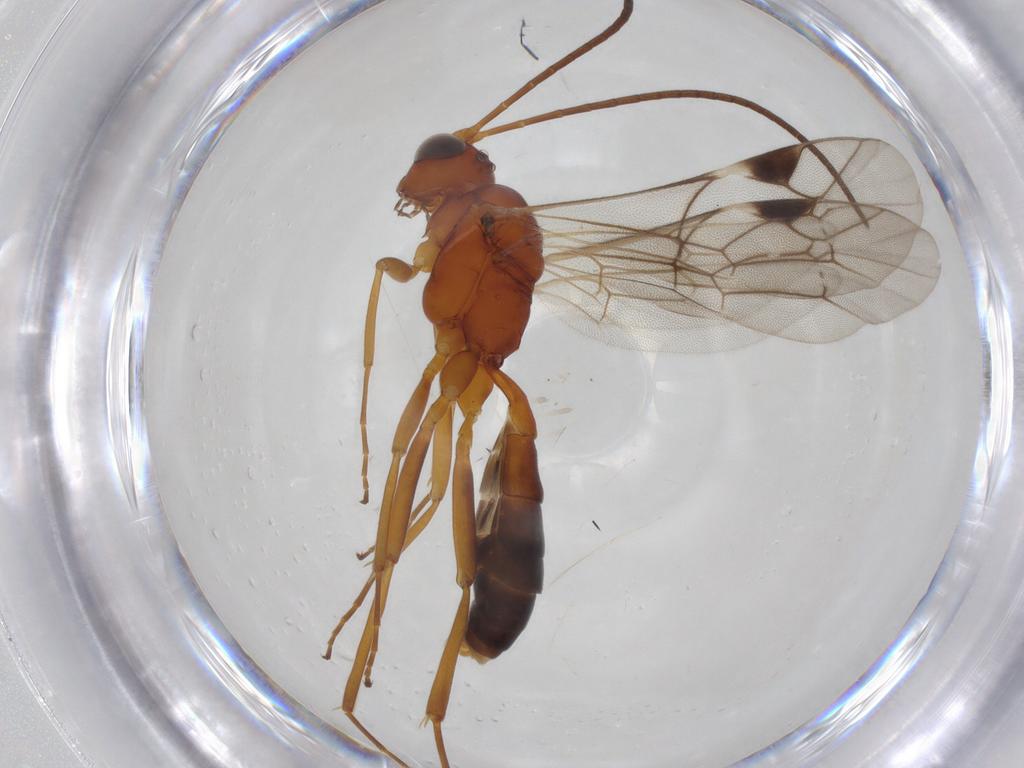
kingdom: Animalia
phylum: Arthropoda
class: Insecta
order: Hymenoptera
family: Ichneumonidae
